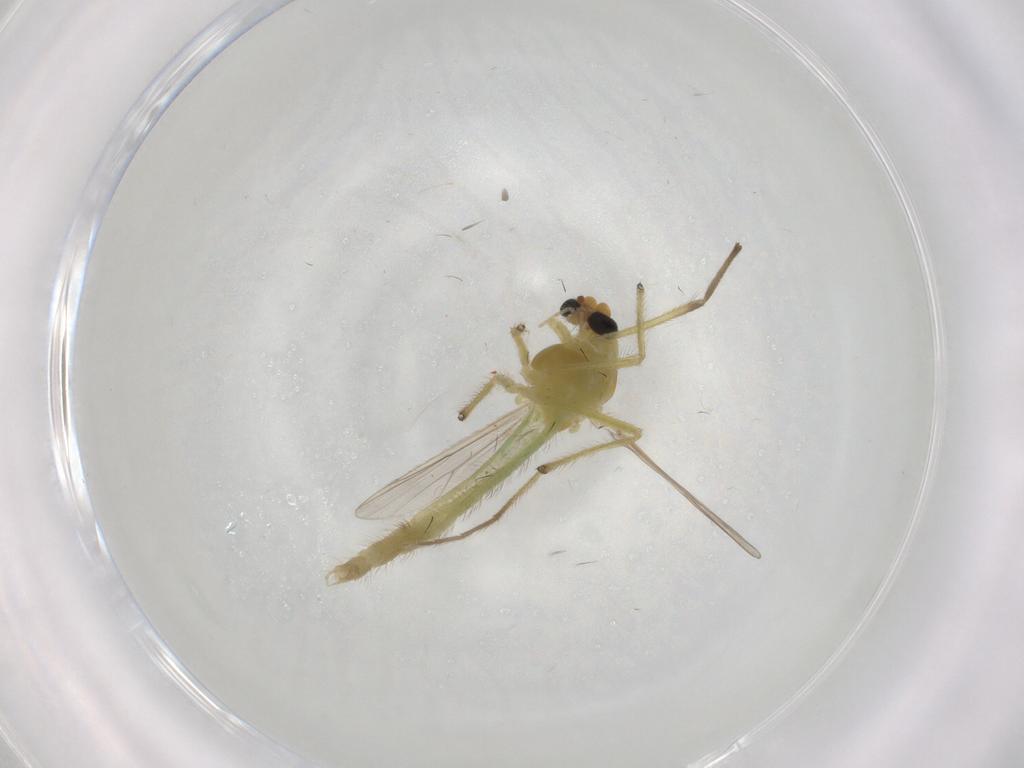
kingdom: Animalia
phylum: Arthropoda
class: Insecta
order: Diptera
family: Chironomidae
